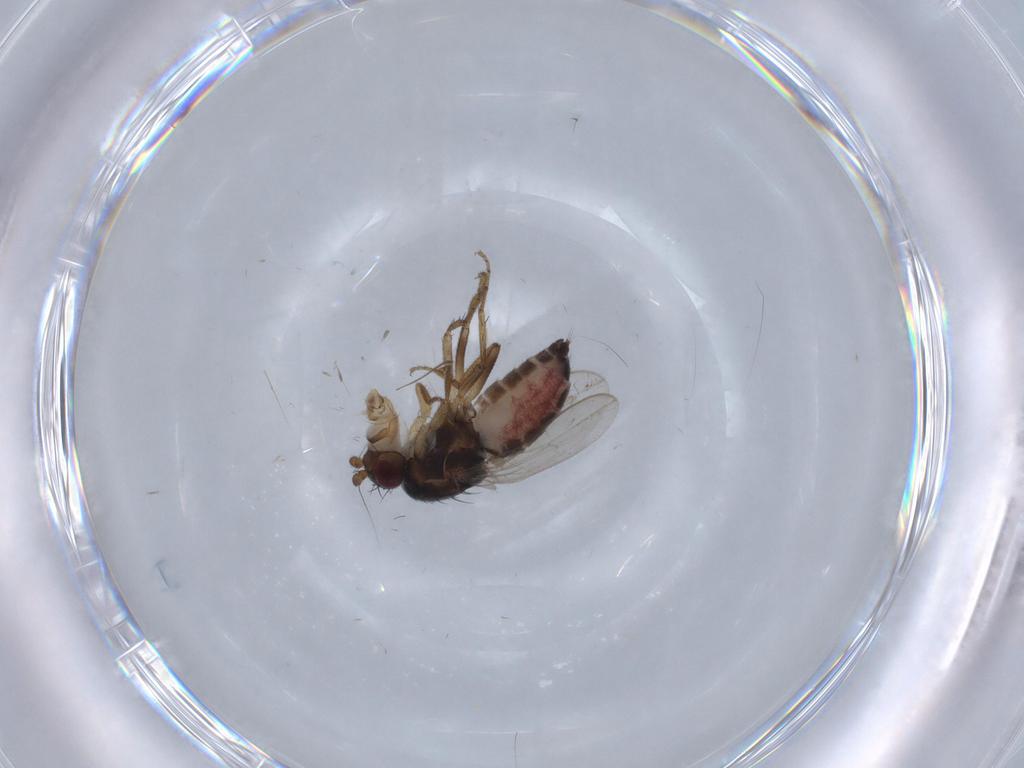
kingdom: Animalia
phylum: Arthropoda
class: Insecta
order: Diptera
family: Chironomidae
